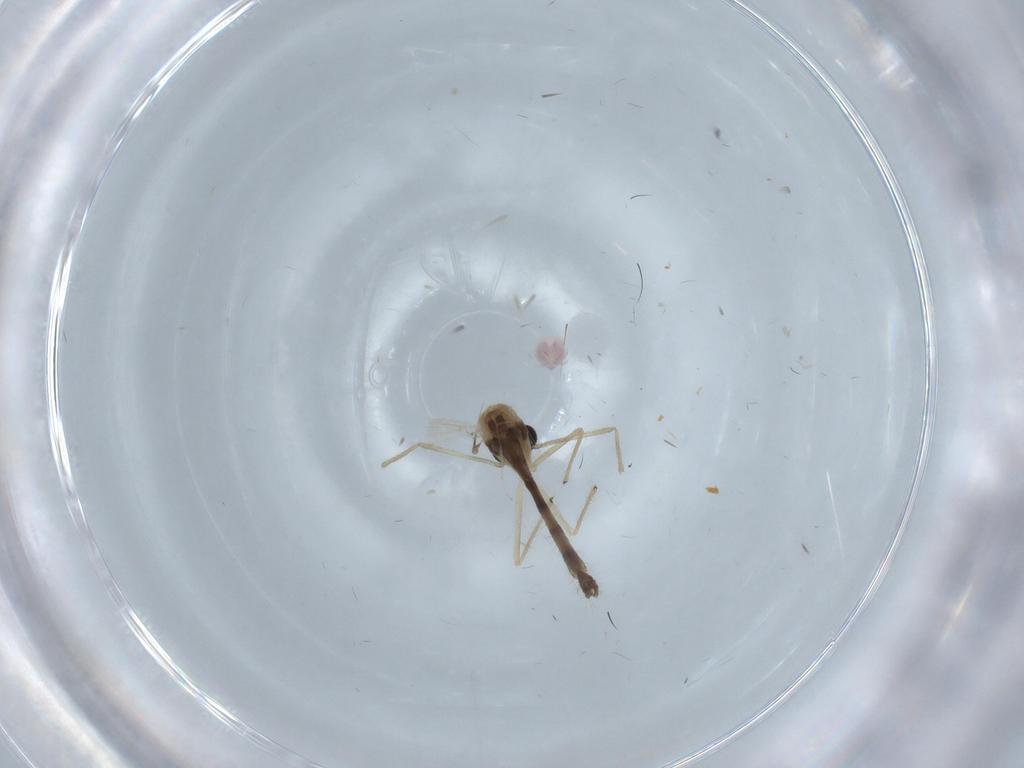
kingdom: Animalia
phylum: Arthropoda
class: Insecta
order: Diptera
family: Chironomidae
